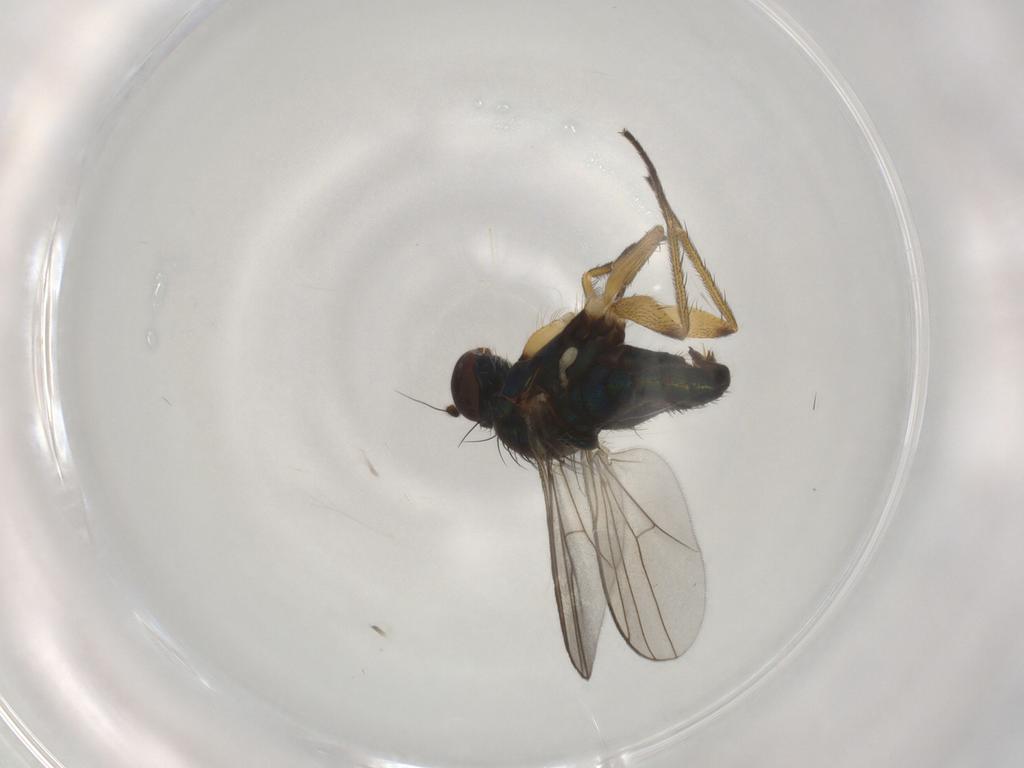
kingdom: Animalia
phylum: Arthropoda
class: Insecta
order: Diptera
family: Dolichopodidae
